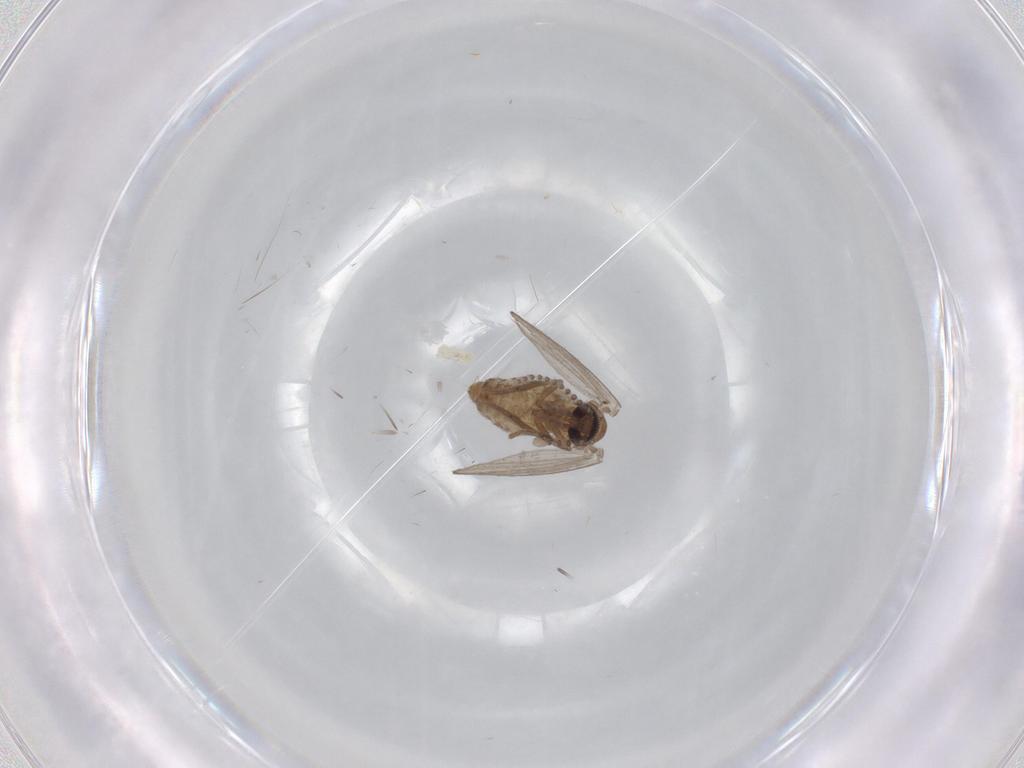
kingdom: Animalia
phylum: Arthropoda
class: Insecta
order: Diptera
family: Psychodidae
